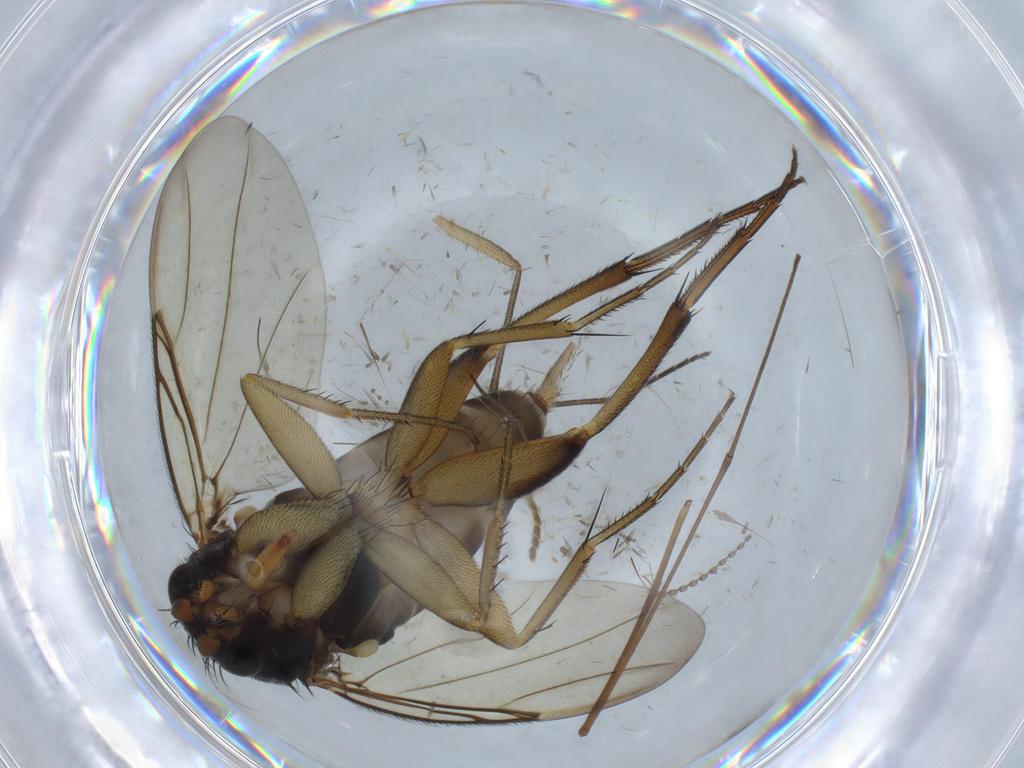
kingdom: Animalia
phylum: Arthropoda
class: Insecta
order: Diptera
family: Phoridae
